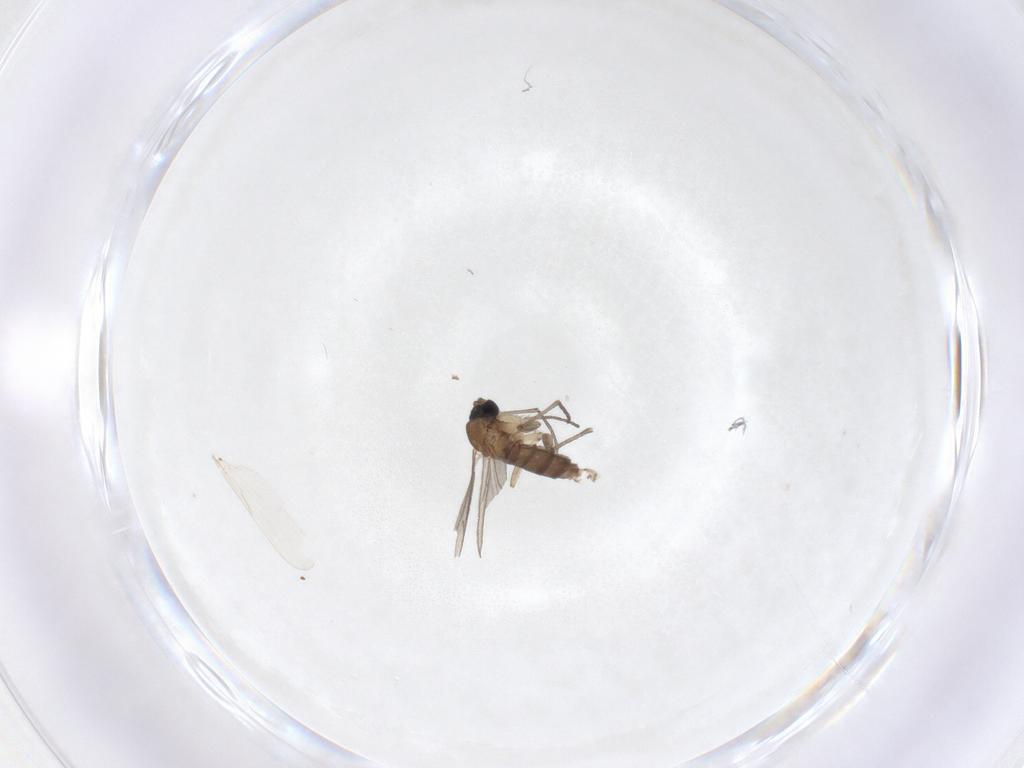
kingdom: Animalia
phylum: Arthropoda
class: Insecta
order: Diptera
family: Sciaridae
